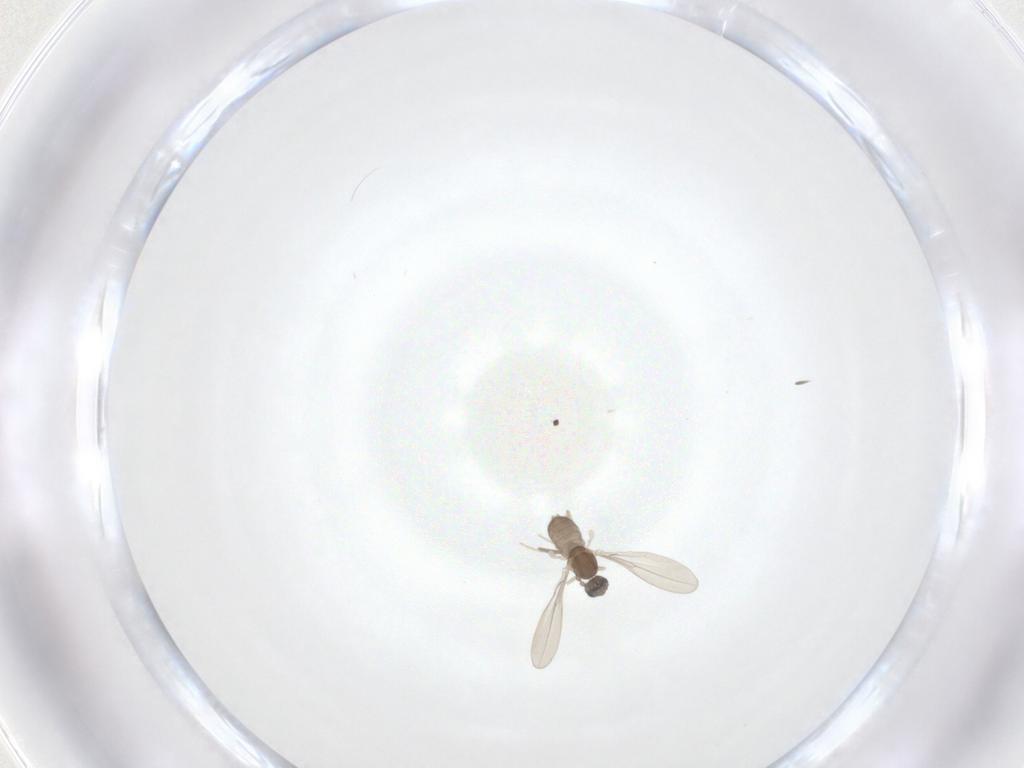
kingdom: Animalia
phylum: Arthropoda
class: Insecta
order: Diptera
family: Cecidomyiidae
